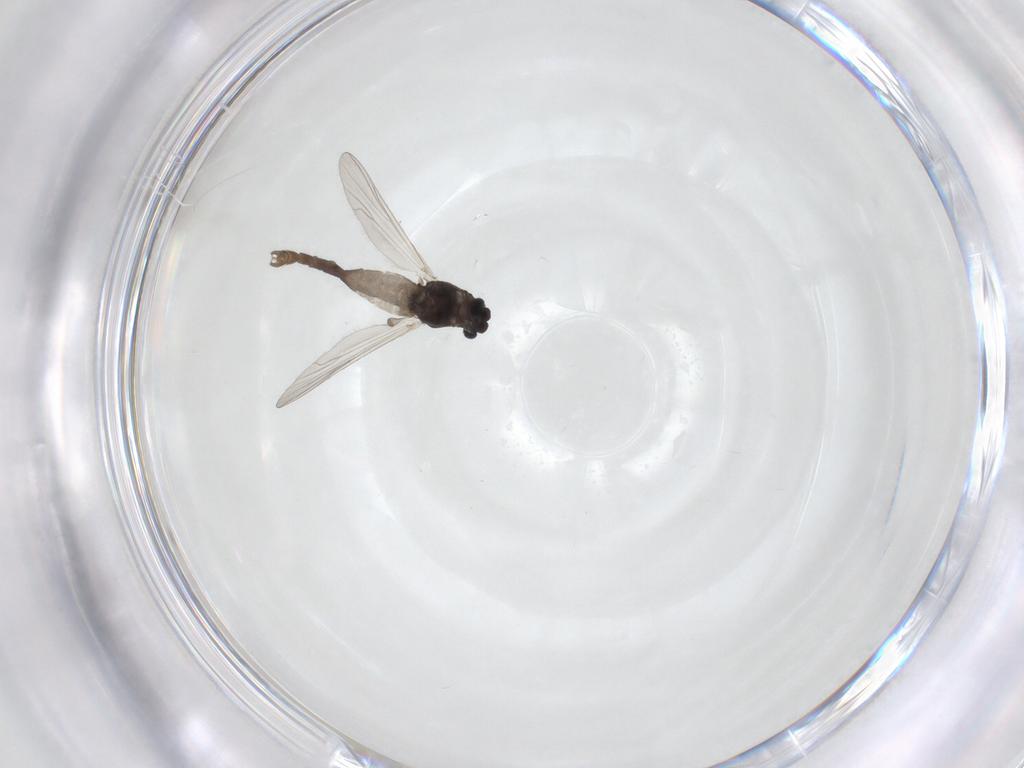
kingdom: Animalia
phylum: Arthropoda
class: Insecta
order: Diptera
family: Chironomidae
